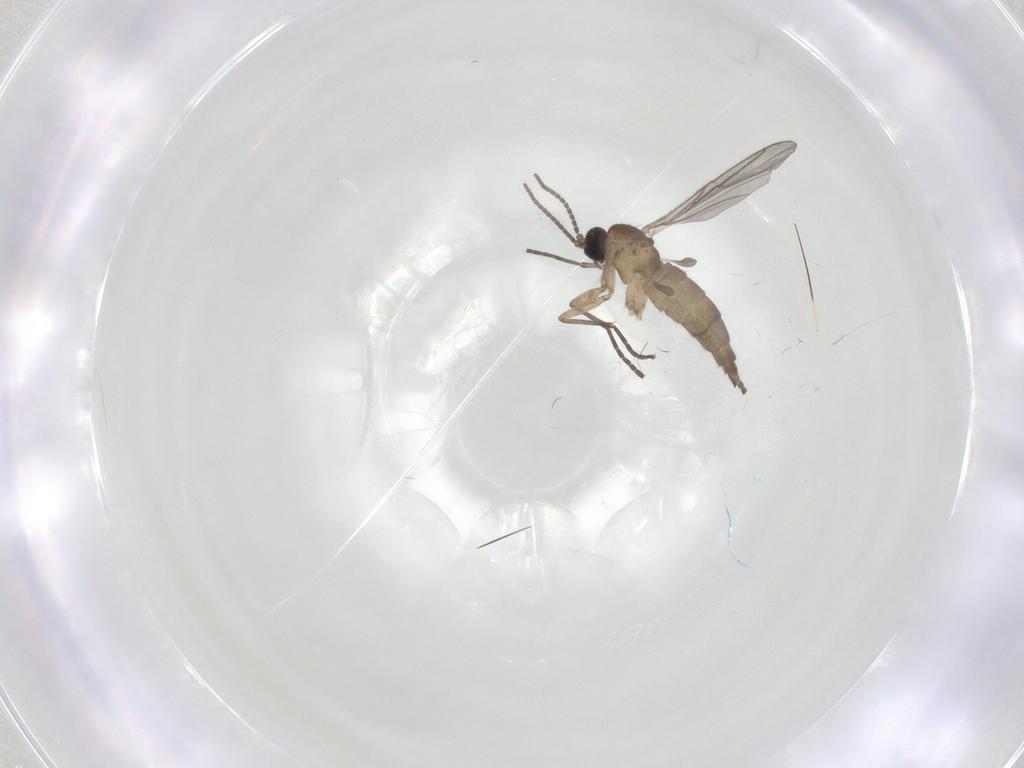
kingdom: Animalia
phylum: Arthropoda
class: Insecta
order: Diptera
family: Sciaridae
